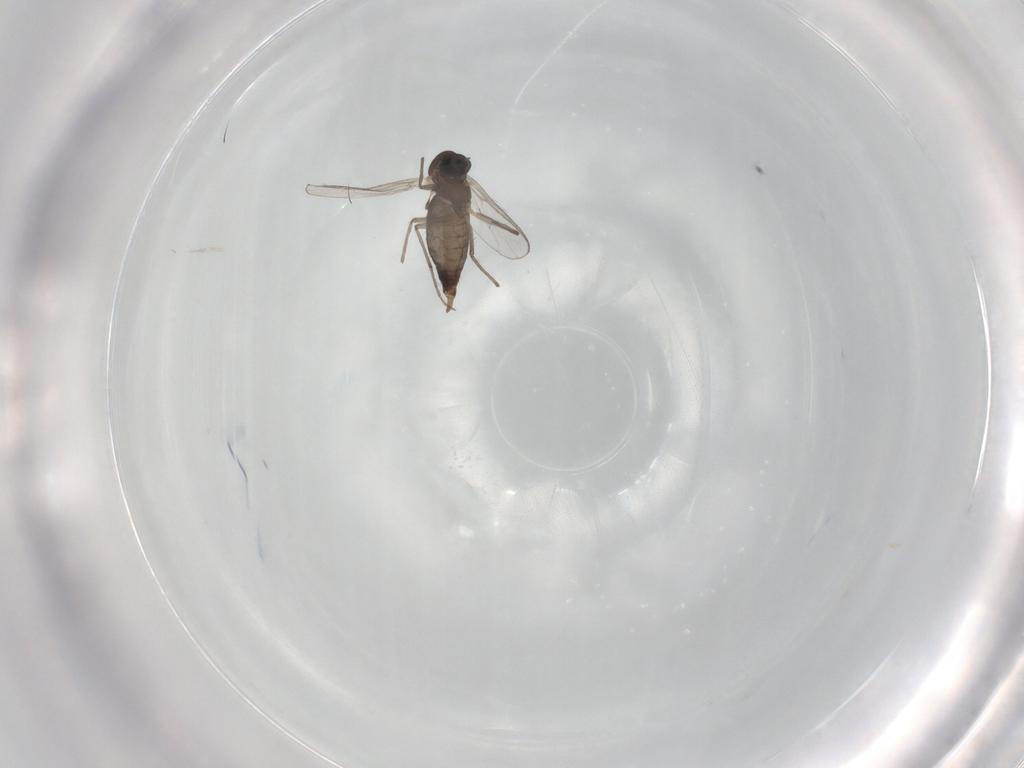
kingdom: Animalia
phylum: Arthropoda
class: Insecta
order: Diptera
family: Chironomidae
